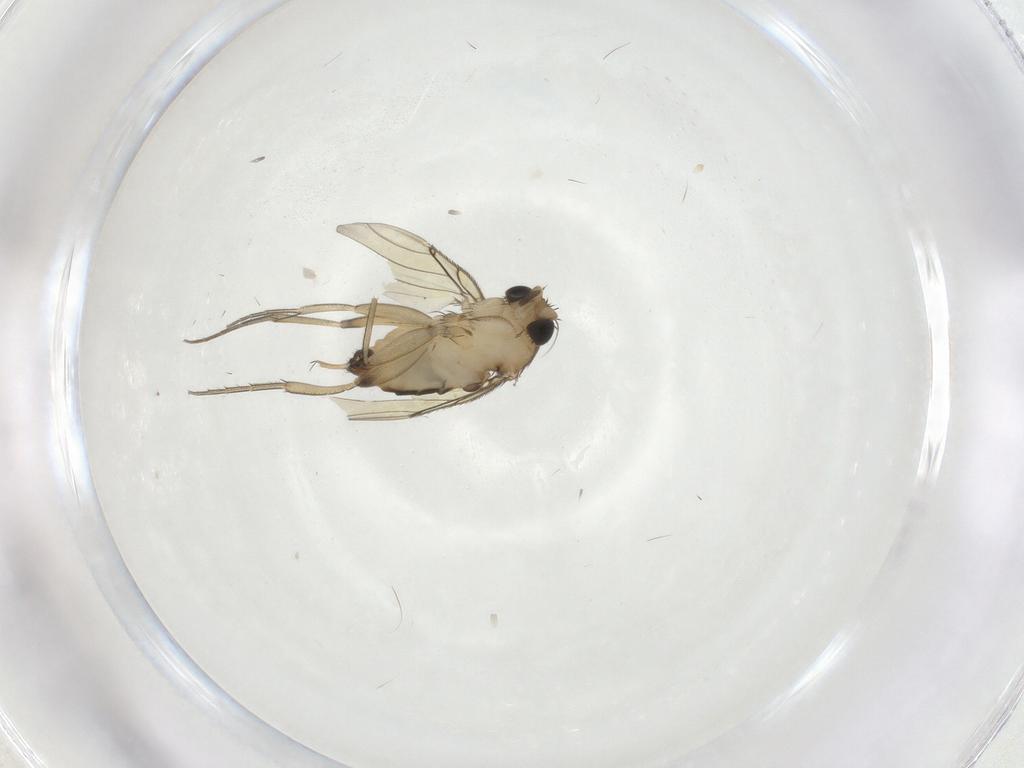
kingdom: Animalia
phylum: Arthropoda
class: Insecta
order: Diptera
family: Phoridae
